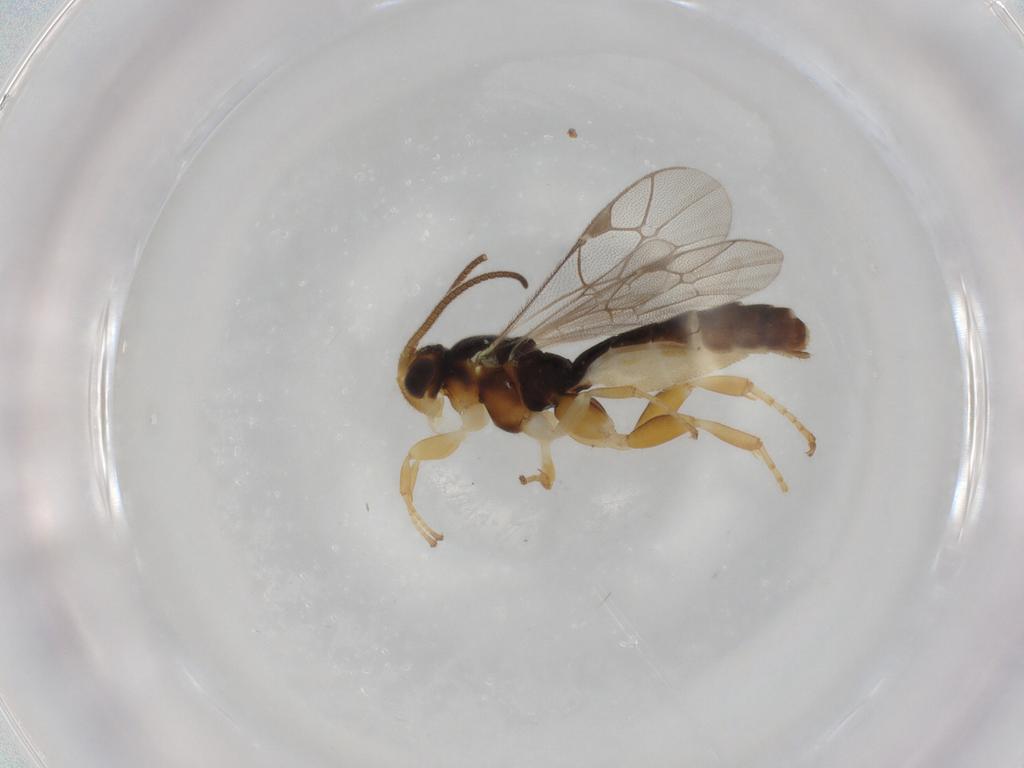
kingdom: Animalia
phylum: Arthropoda
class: Insecta
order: Hymenoptera
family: Ichneumonidae
